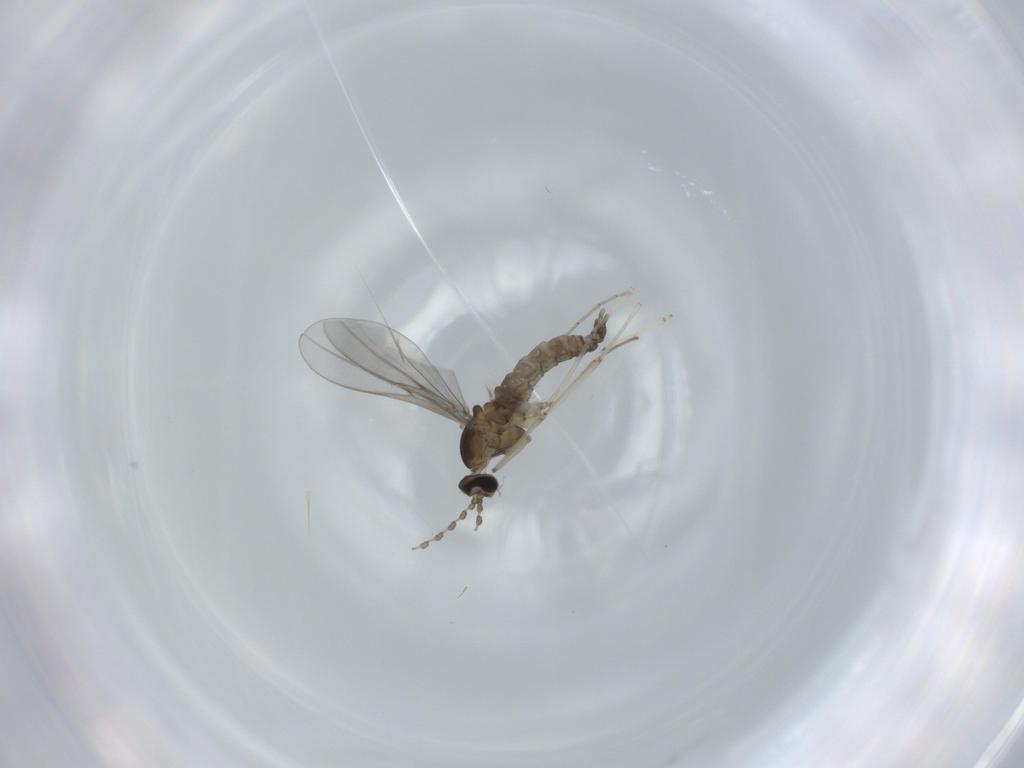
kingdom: Animalia
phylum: Arthropoda
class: Insecta
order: Diptera
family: Cecidomyiidae
